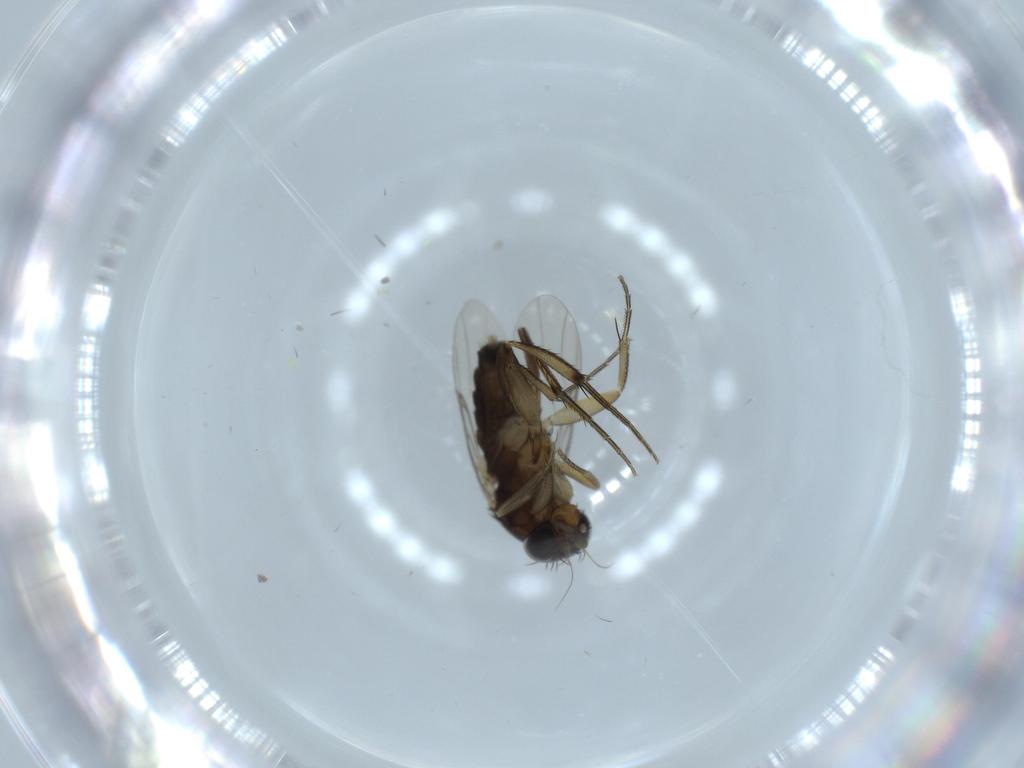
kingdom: Animalia
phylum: Arthropoda
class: Insecta
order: Diptera
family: Phoridae
